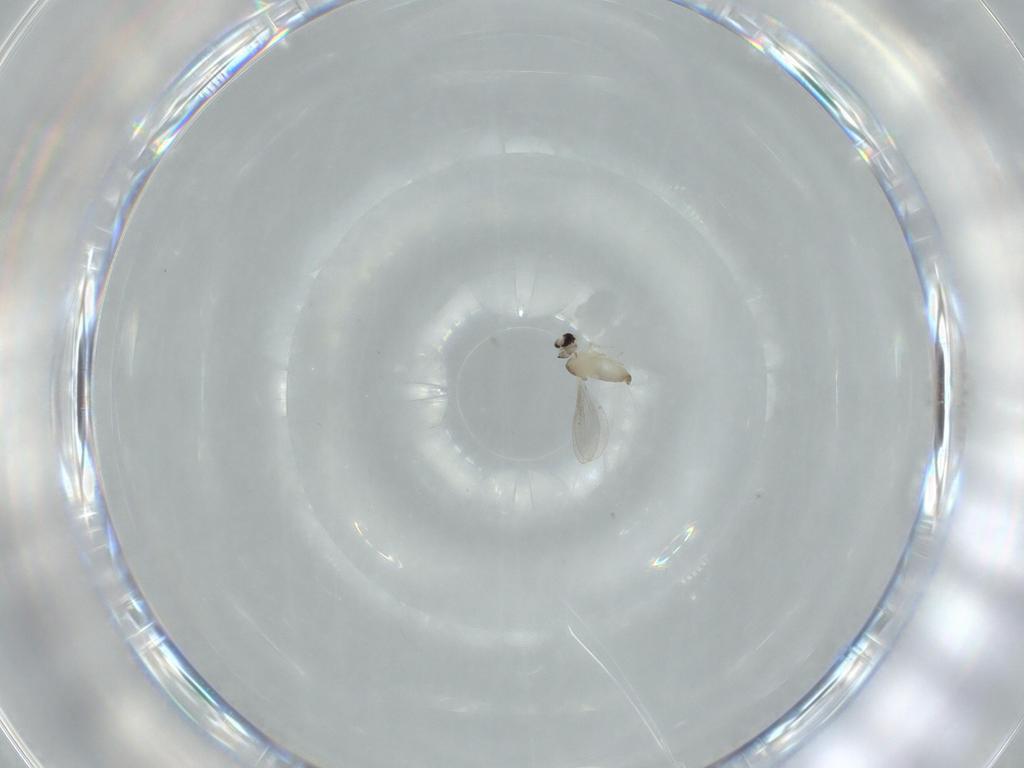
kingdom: Animalia
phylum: Arthropoda
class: Insecta
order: Diptera
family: Psychodidae
